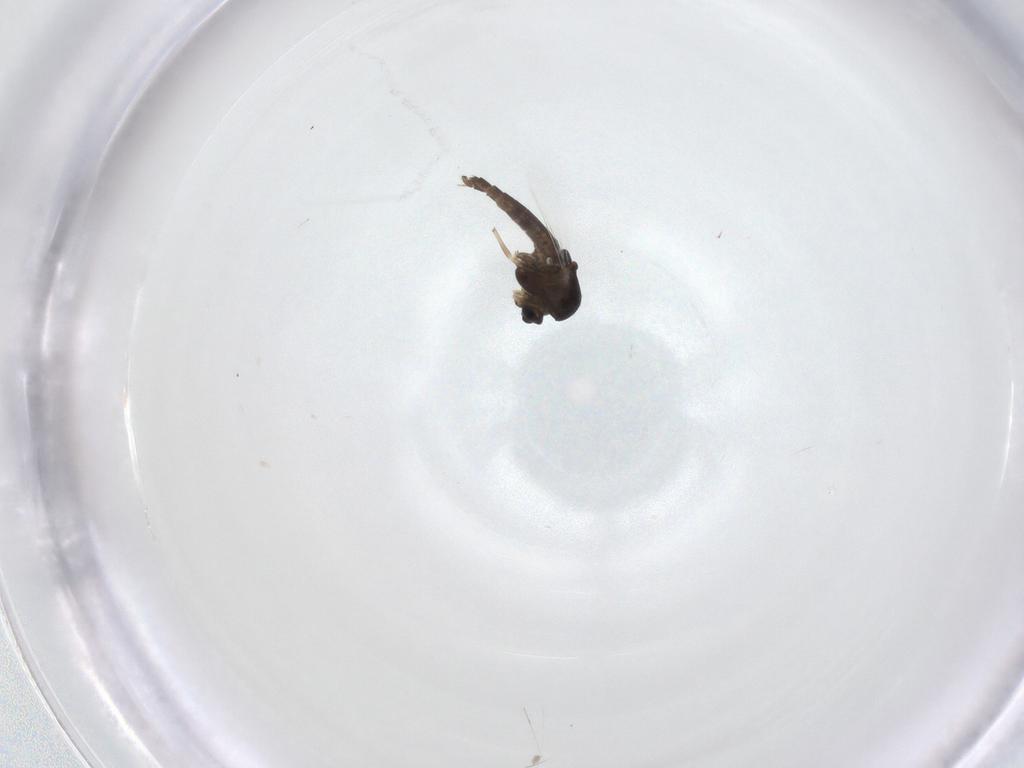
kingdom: Animalia
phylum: Arthropoda
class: Insecta
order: Diptera
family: Chironomidae
